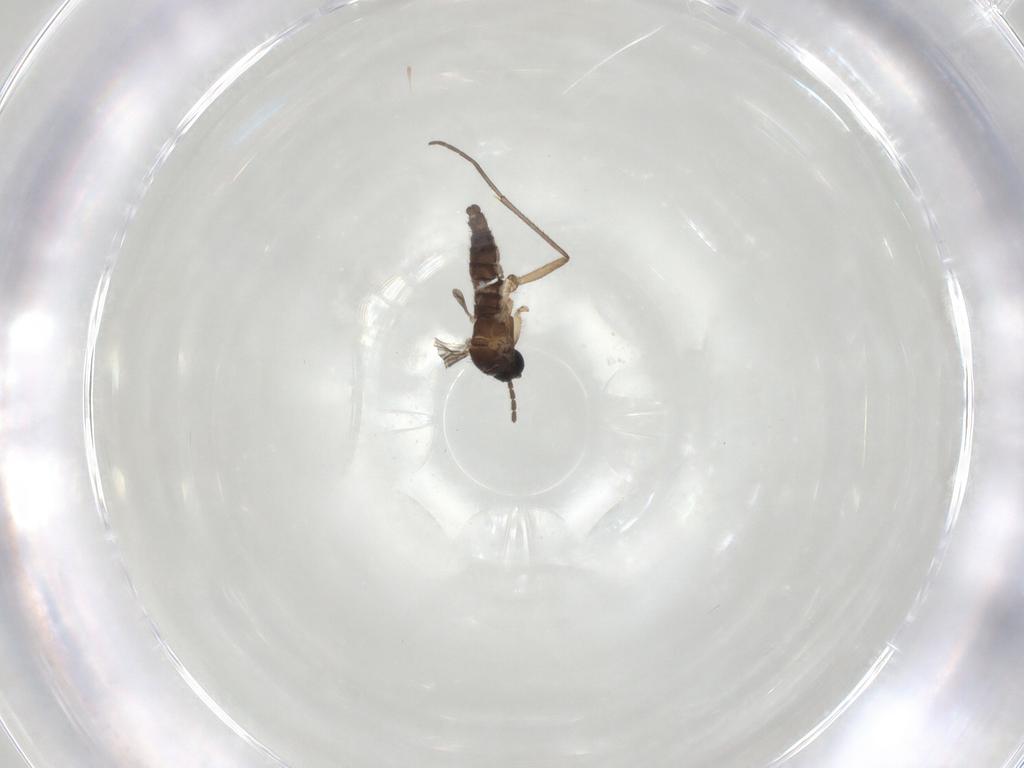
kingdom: Animalia
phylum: Arthropoda
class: Insecta
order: Diptera
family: Sciaridae
